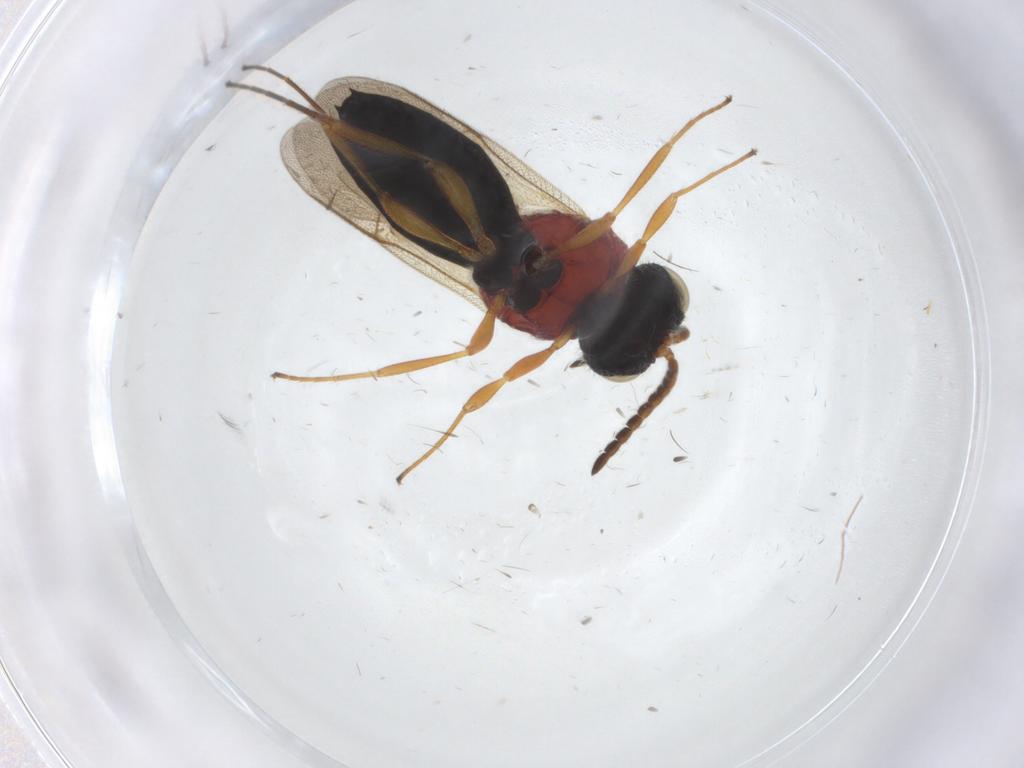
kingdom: Animalia
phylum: Arthropoda
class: Insecta
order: Hymenoptera
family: Scelionidae
